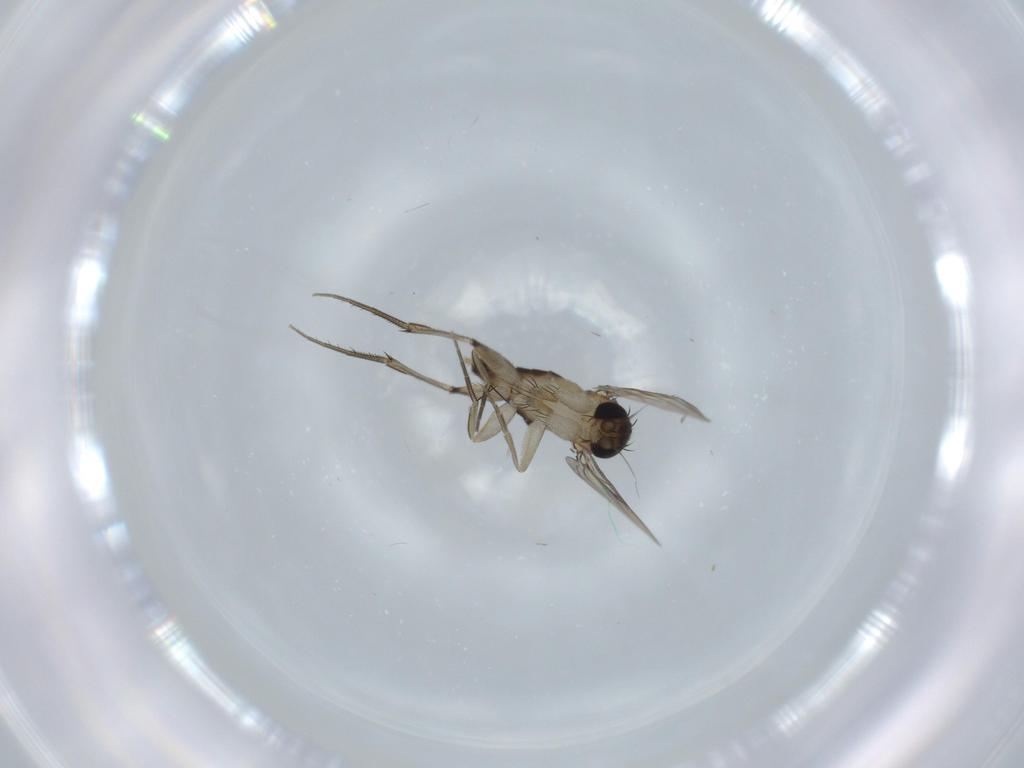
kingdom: Animalia
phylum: Arthropoda
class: Insecta
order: Diptera
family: Phoridae
